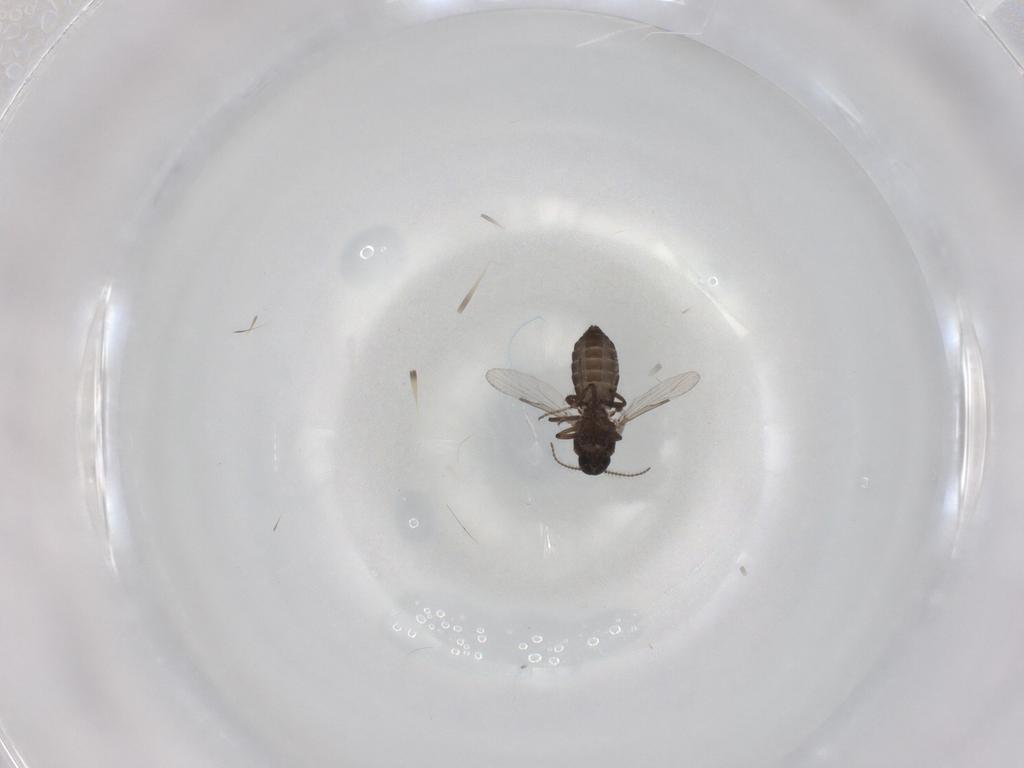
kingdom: Animalia
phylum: Arthropoda
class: Insecta
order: Diptera
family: Ceratopogonidae
